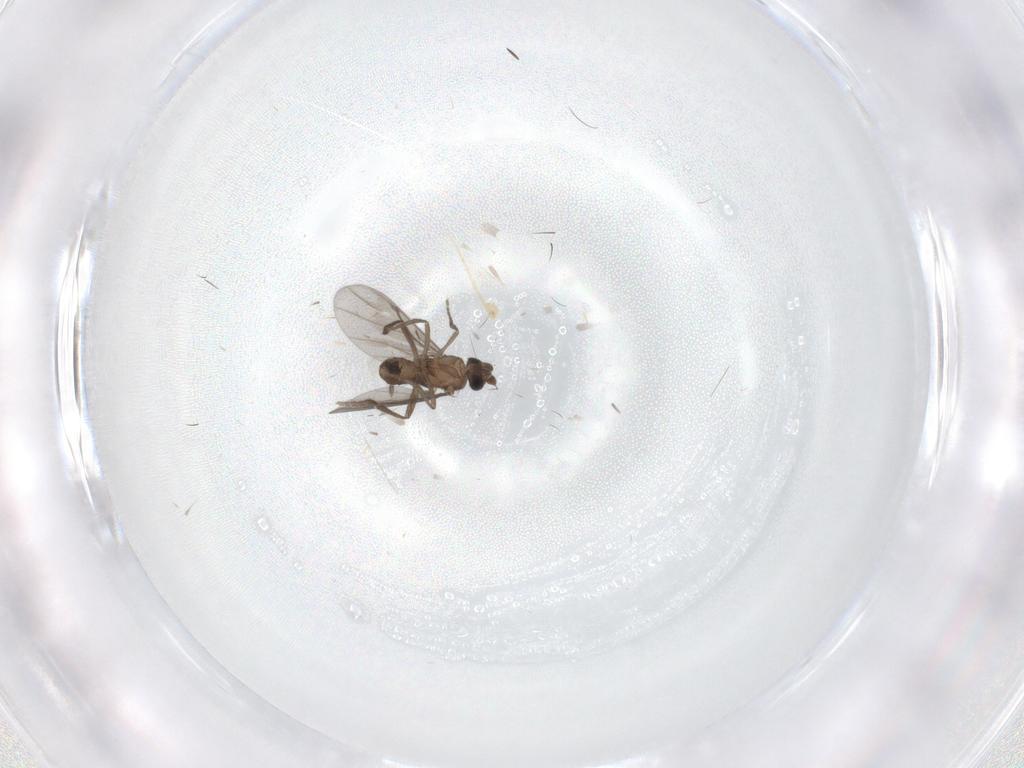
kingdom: Animalia
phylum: Arthropoda
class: Insecta
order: Diptera
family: Phoridae
